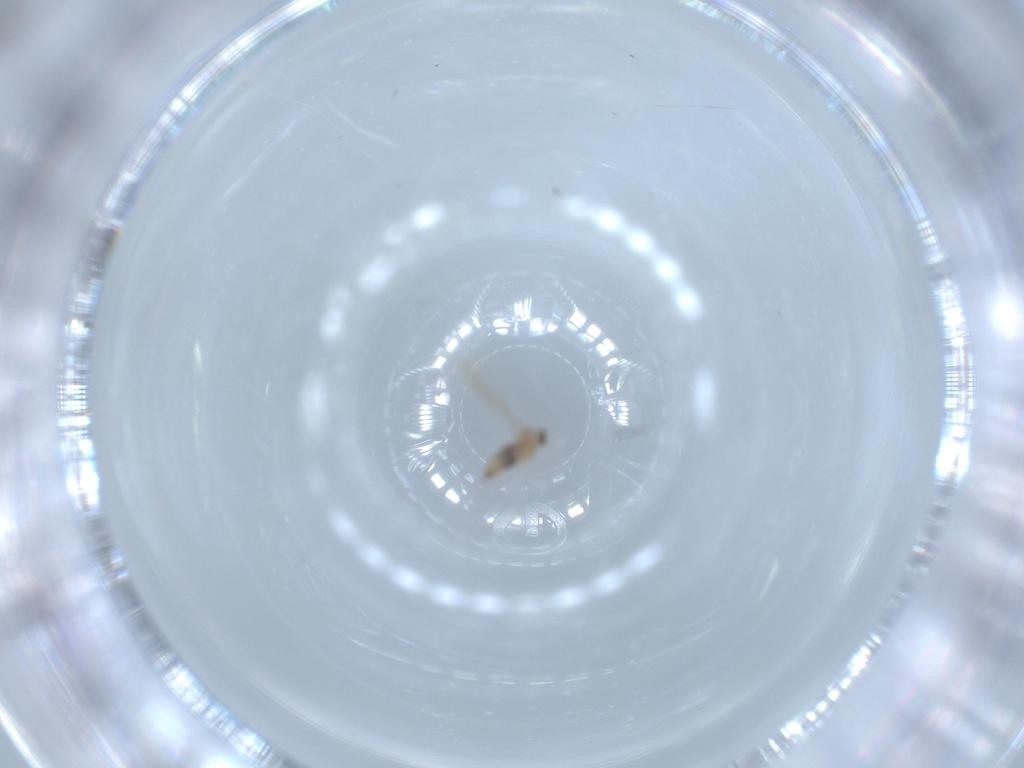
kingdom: Animalia
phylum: Arthropoda
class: Insecta
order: Diptera
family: Cecidomyiidae
